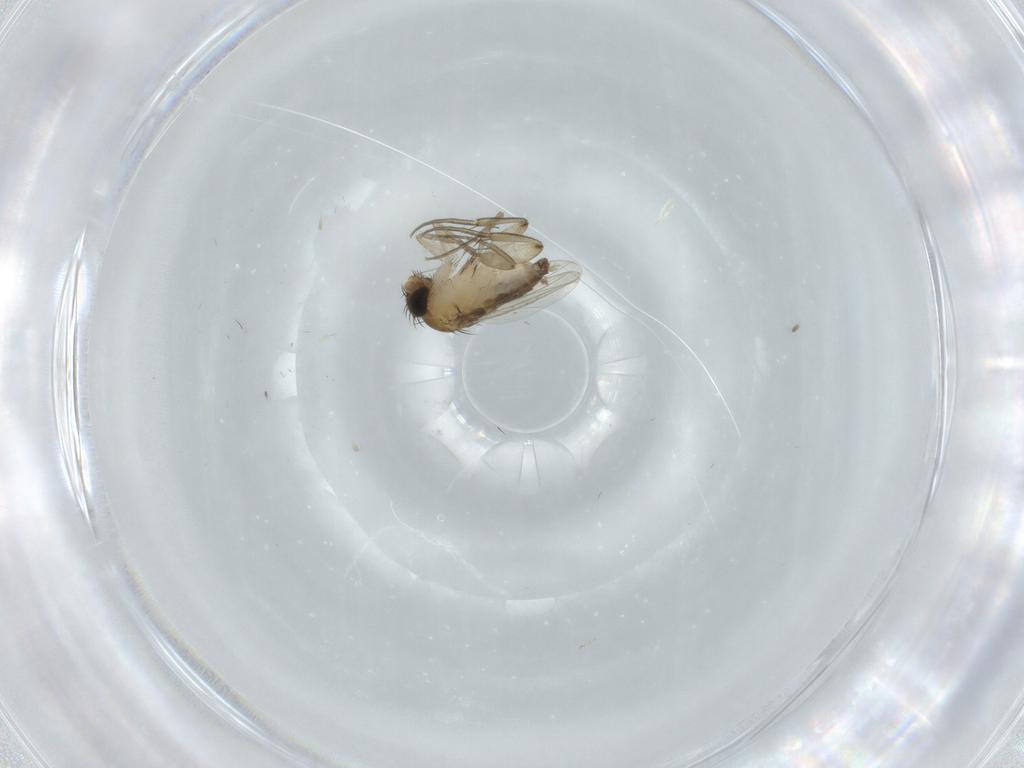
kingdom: Animalia
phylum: Arthropoda
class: Insecta
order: Diptera
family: Phoridae
